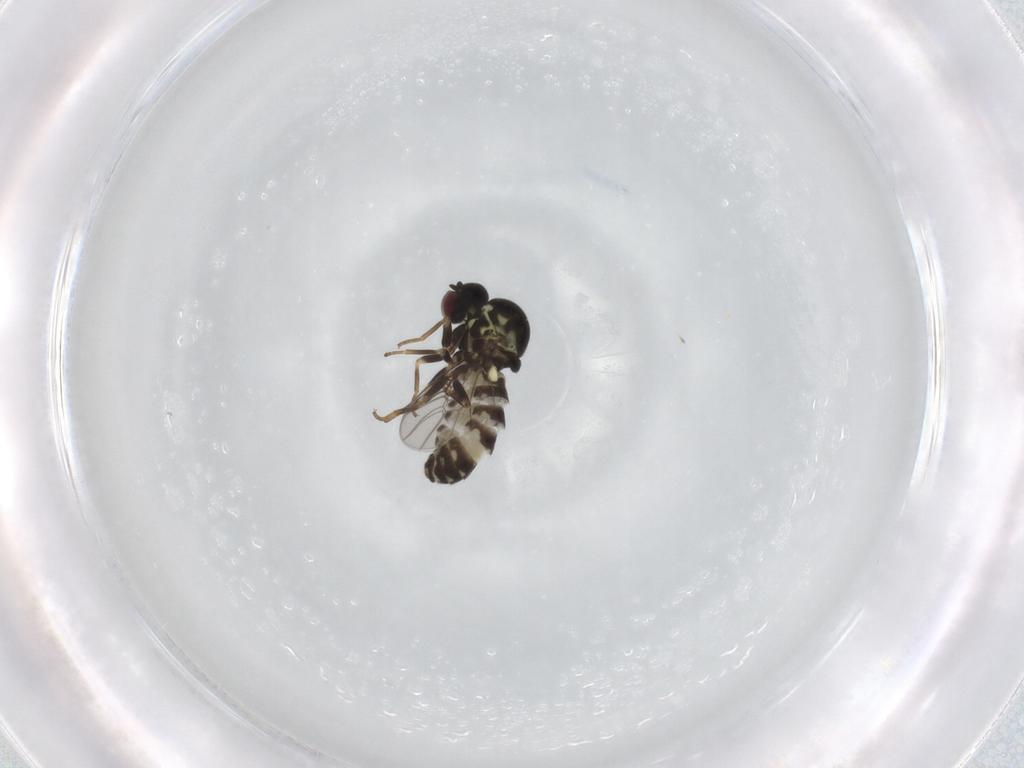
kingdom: Animalia
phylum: Arthropoda
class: Insecta
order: Diptera
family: Bombyliidae
